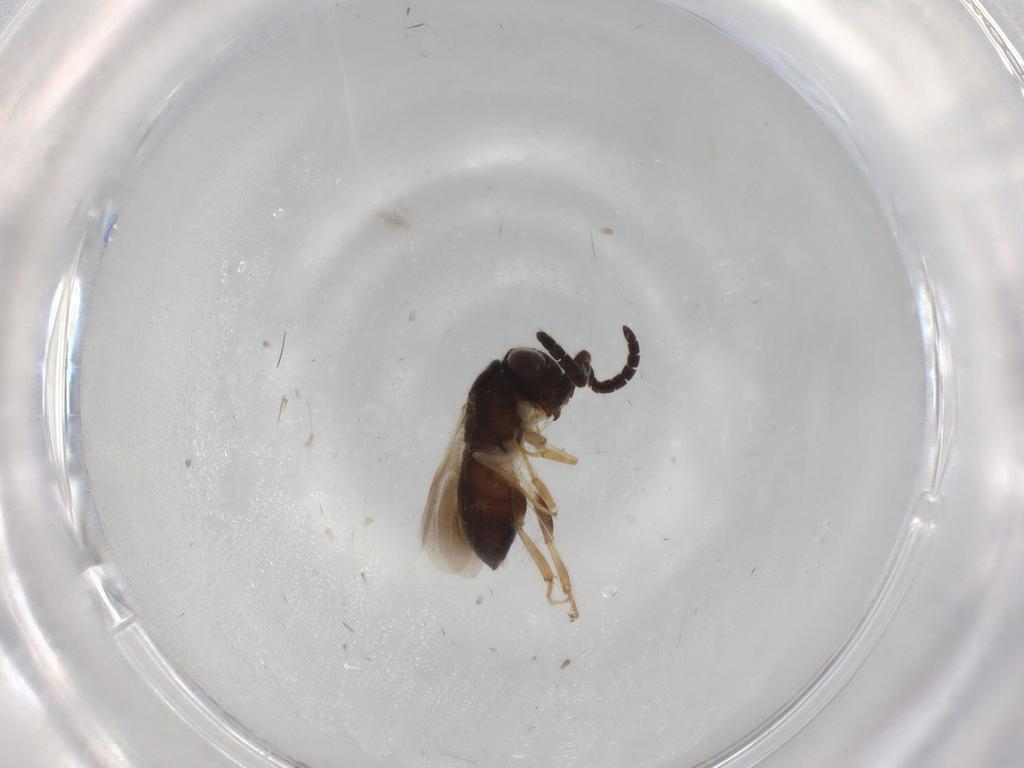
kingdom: Animalia
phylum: Arthropoda
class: Insecta
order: Hymenoptera
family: Megaspilidae
